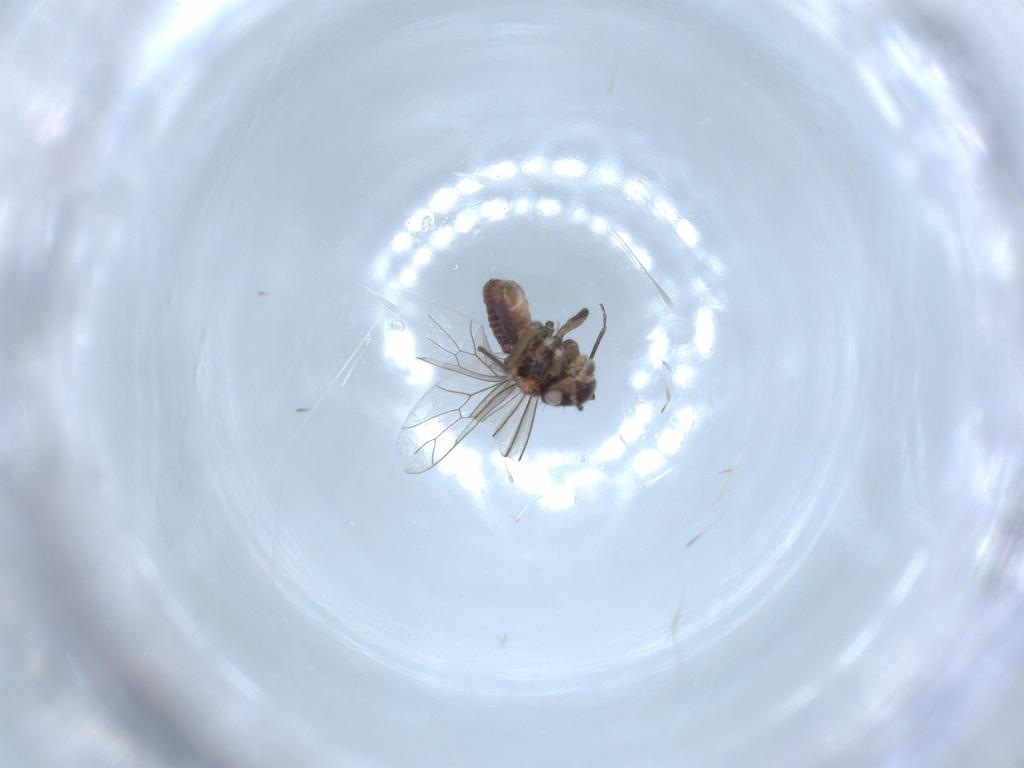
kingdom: Animalia
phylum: Arthropoda
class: Insecta
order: Psocodea
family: Ectopsocidae
